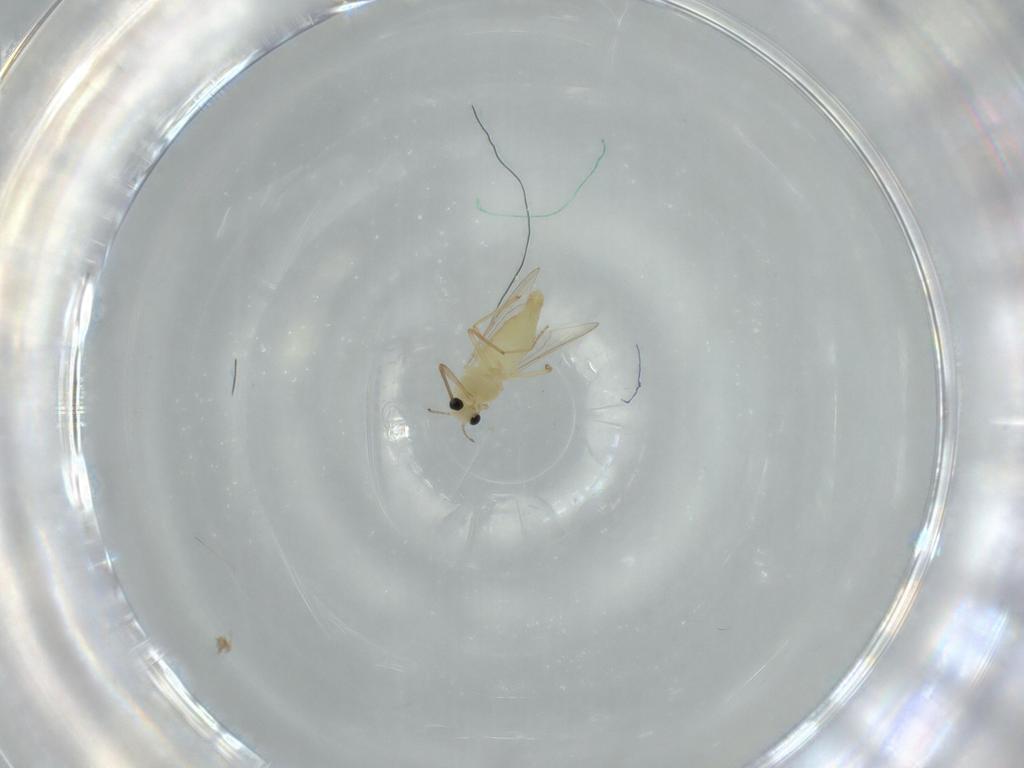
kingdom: Animalia
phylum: Arthropoda
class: Insecta
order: Diptera
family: Chironomidae
